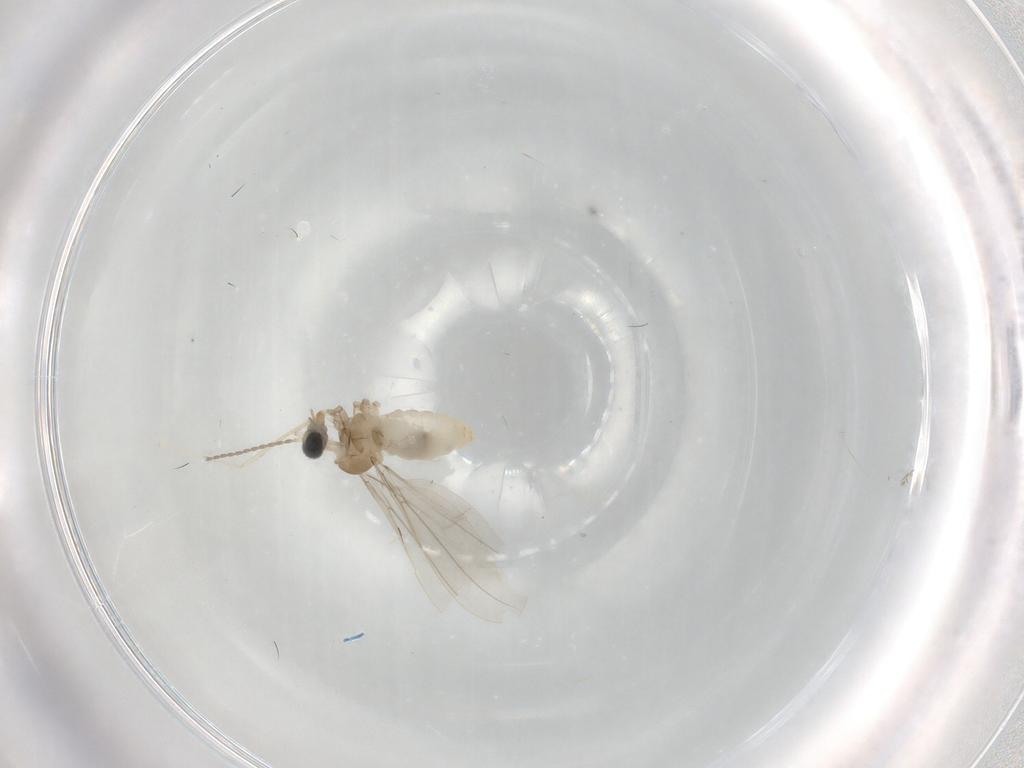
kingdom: Animalia
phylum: Arthropoda
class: Insecta
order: Diptera
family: Cecidomyiidae
